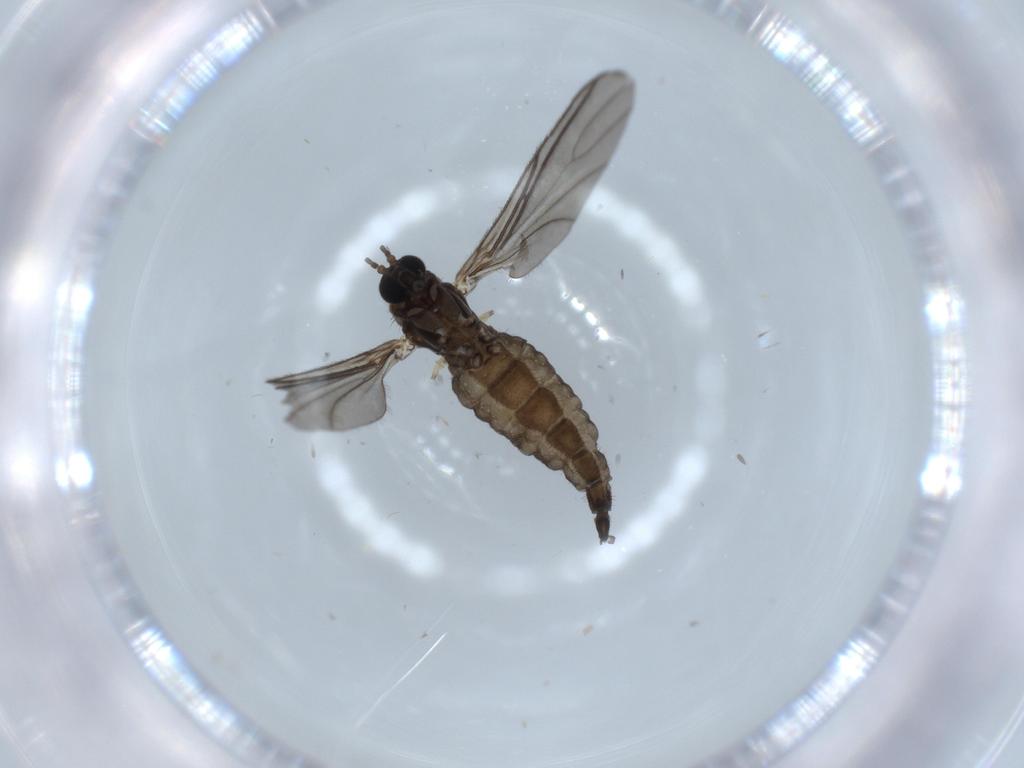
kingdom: Animalia
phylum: Arthropoda
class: Insecta
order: Diptera
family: Sciaridae
